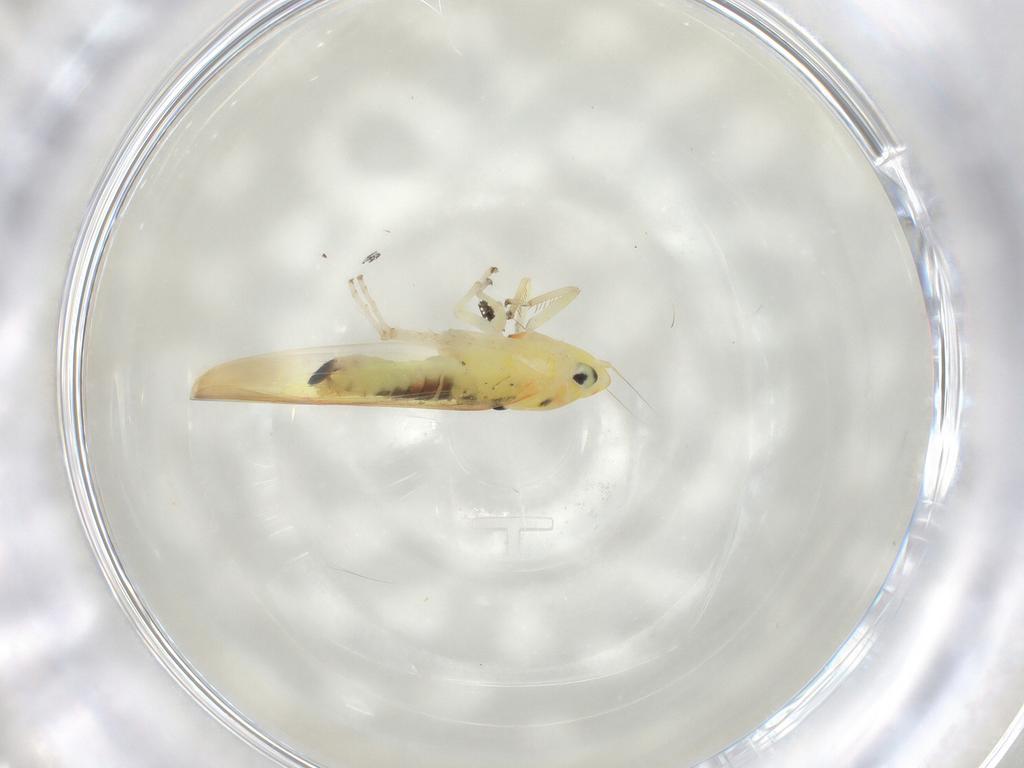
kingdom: Animalia
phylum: Arthropoda
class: Insecta
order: Hemiptera
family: Cicadellidae
